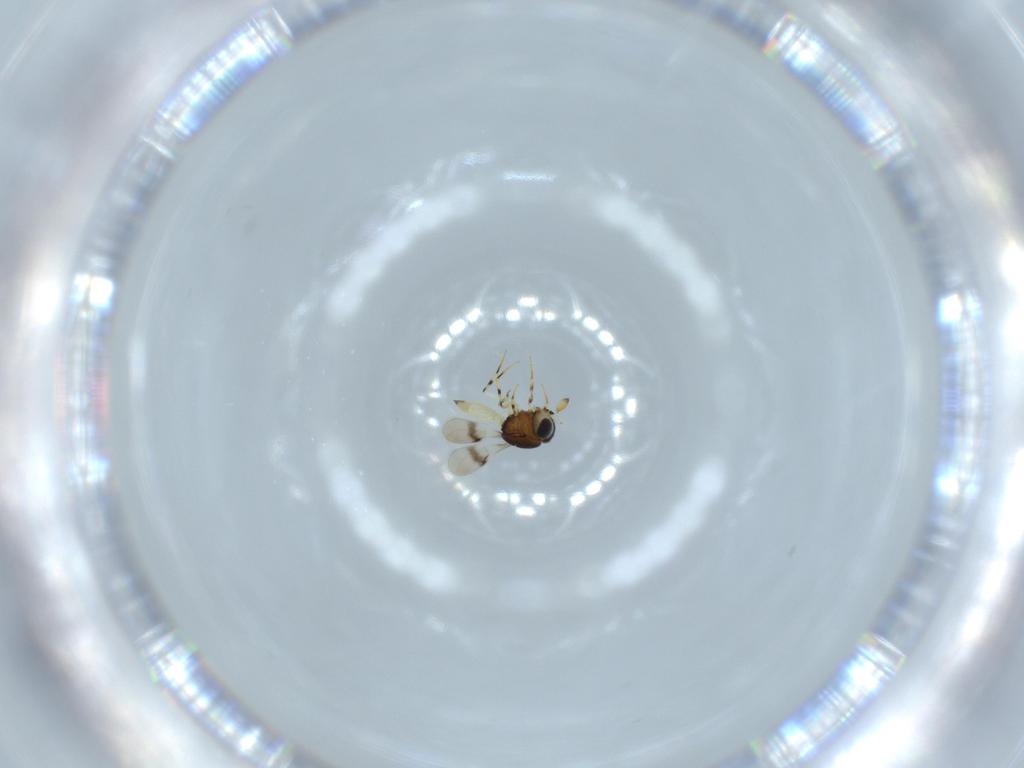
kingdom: Animalia
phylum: Arthropoda
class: Insecta
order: Hymenoptera
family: Scelionidae
